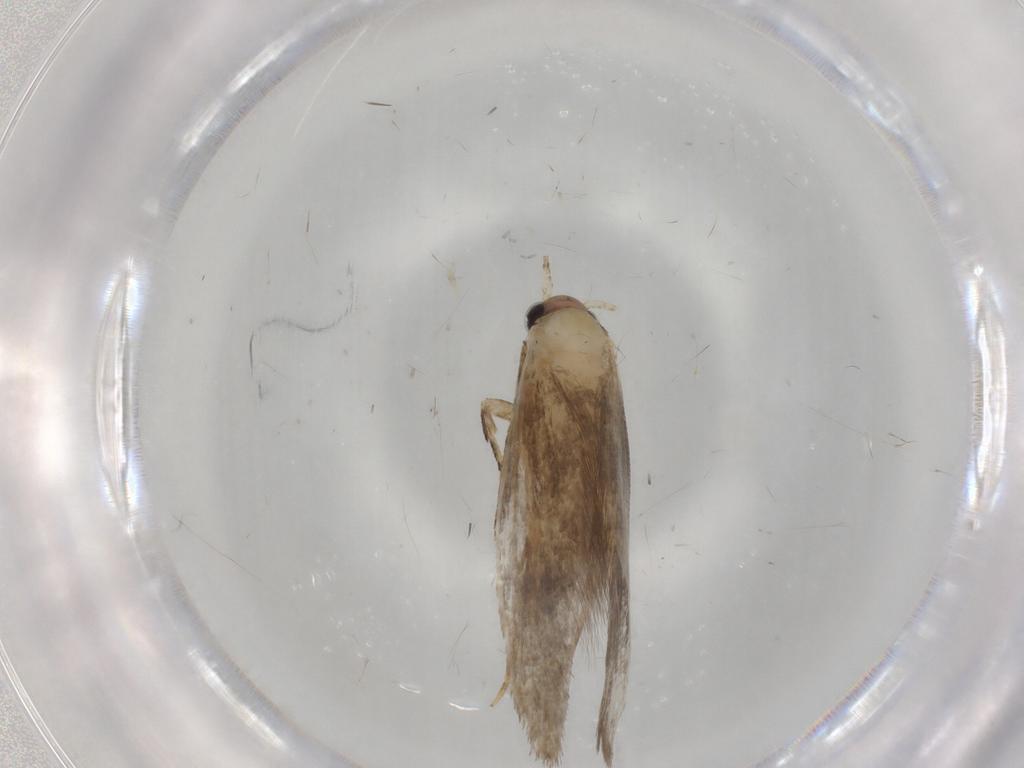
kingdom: Animalia
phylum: Arthropoda
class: Insecta
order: Lepidoptera
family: Tineidae
